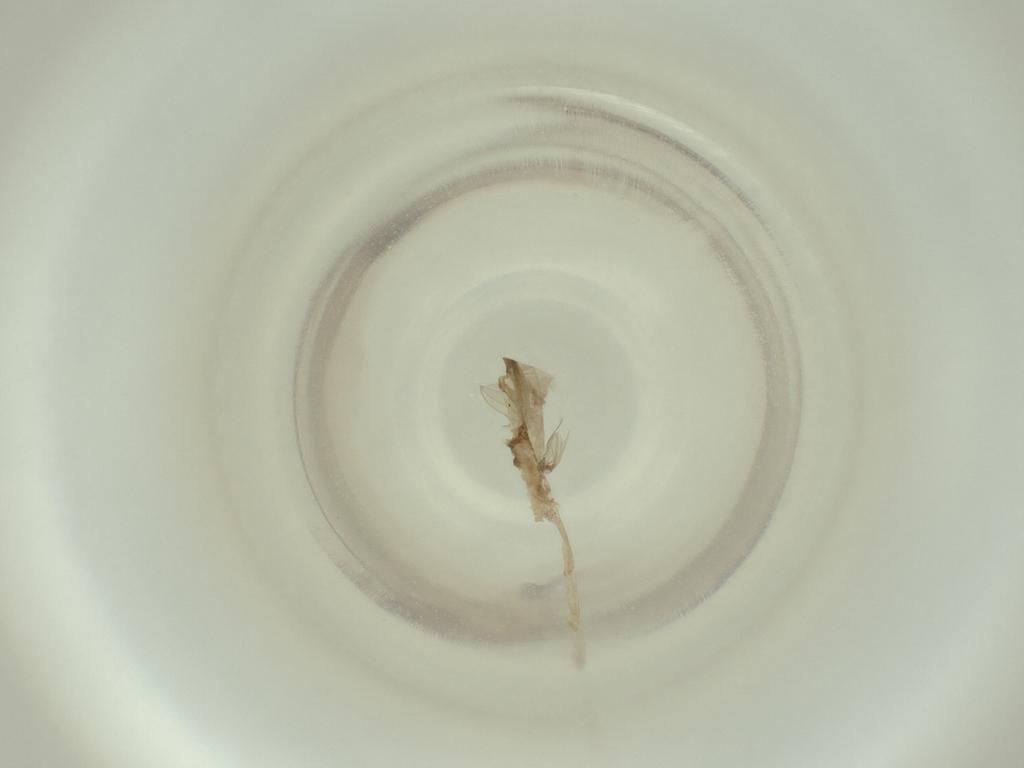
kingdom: Animalia
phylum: Arthropoda
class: Insecta
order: Diptera
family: Cecidomyiidae
